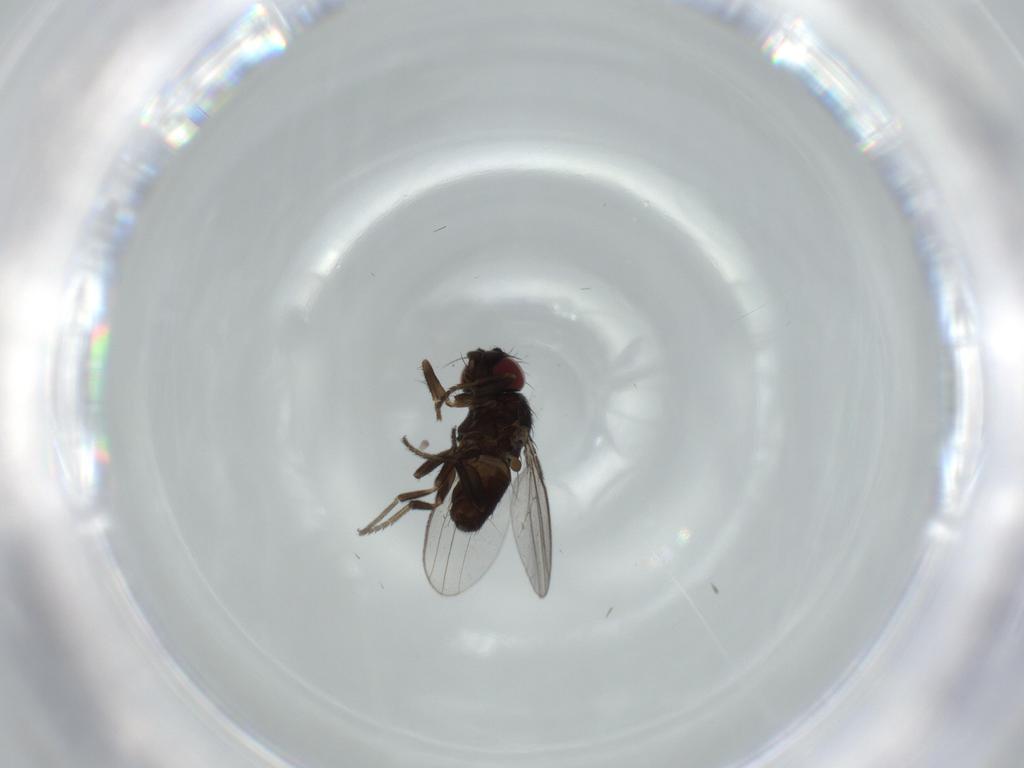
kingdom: Animalia
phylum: Arthropoda
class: Insecta
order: Diptera
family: Milichiidae
